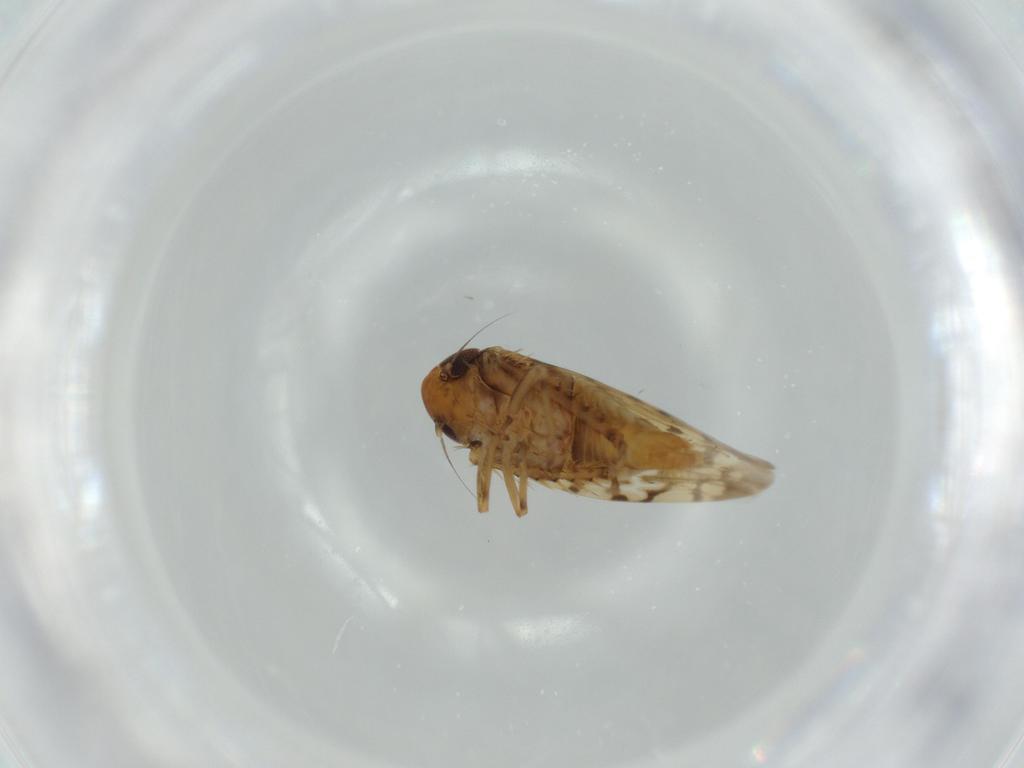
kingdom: Animalia
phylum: Arthropoda
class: Insecta
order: Hemiptera
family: Cicadellidae
